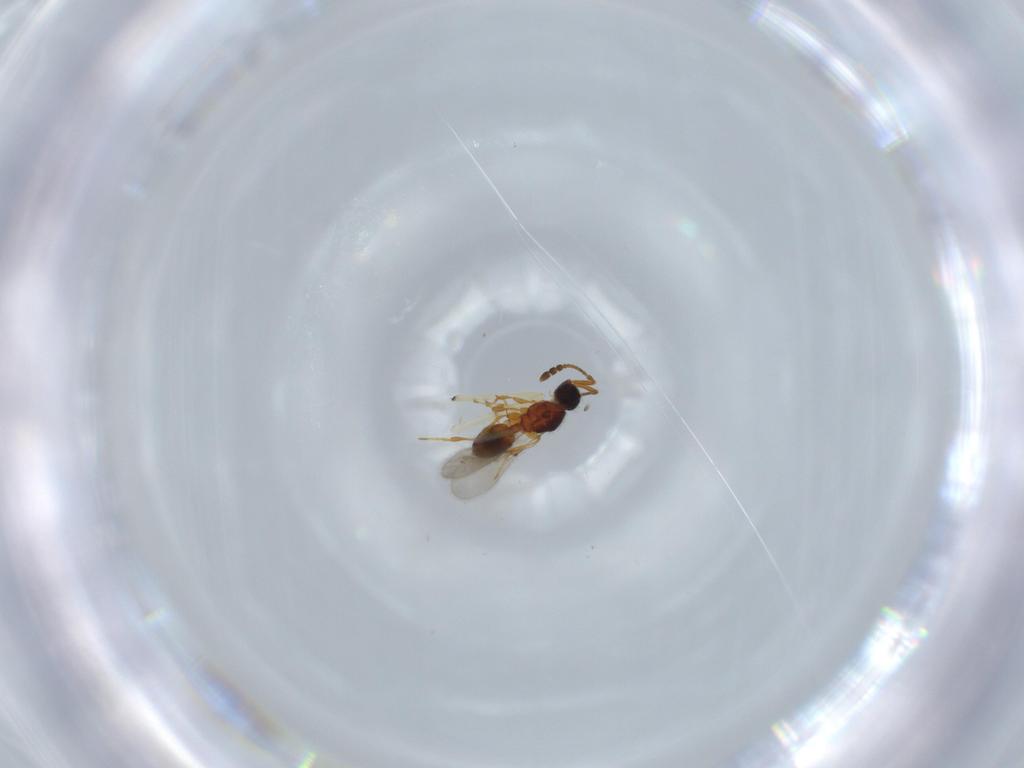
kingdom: Animalia
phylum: Arthropoda
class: Insecta
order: Hymenoptera
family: Diapriidae
